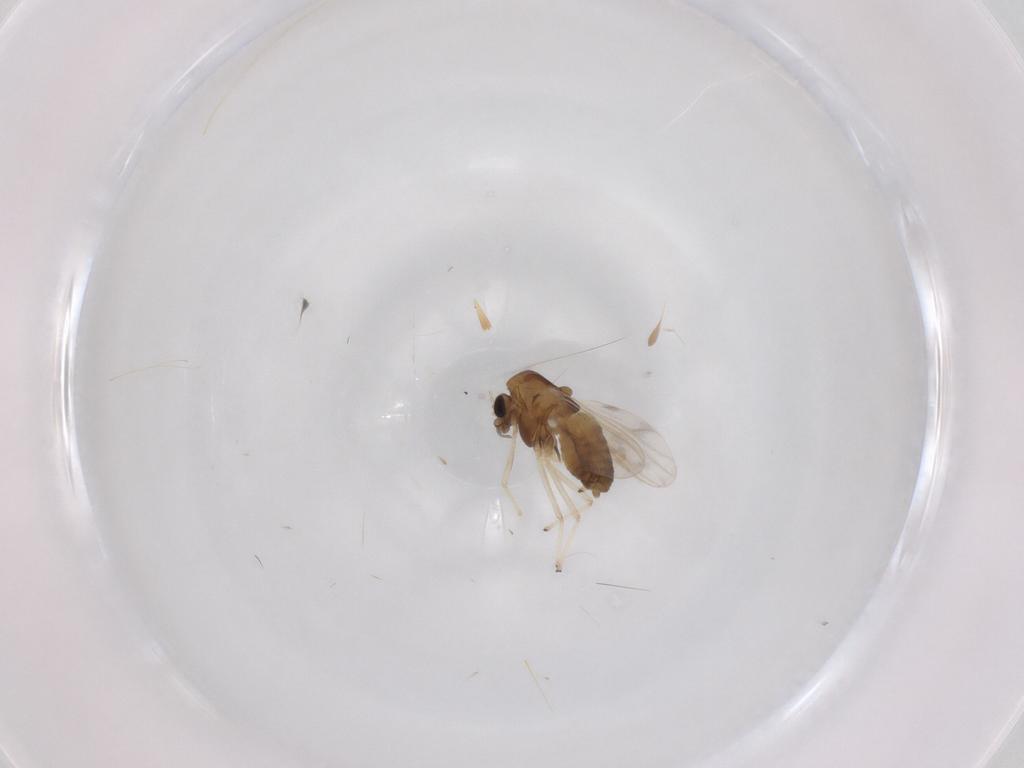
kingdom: Animalia
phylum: Arthropoda
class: Insecta
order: Diptera
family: Chironomidae
